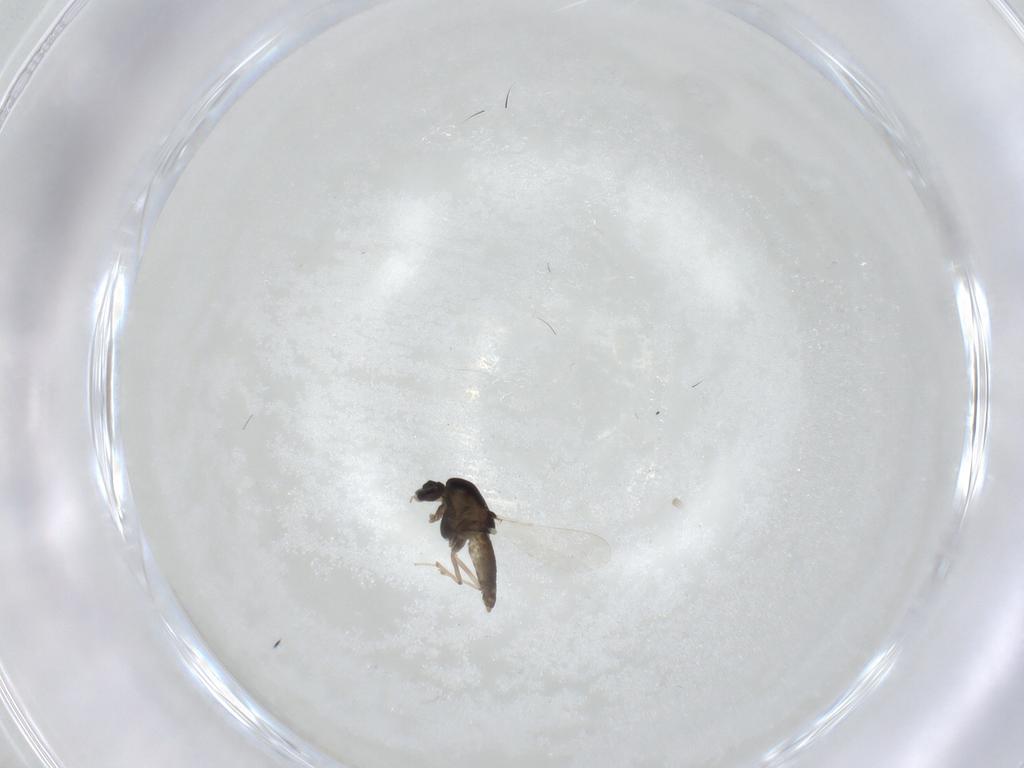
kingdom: Animalia
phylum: Arthropoda
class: Insecta
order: Diptera
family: Chironomidae
